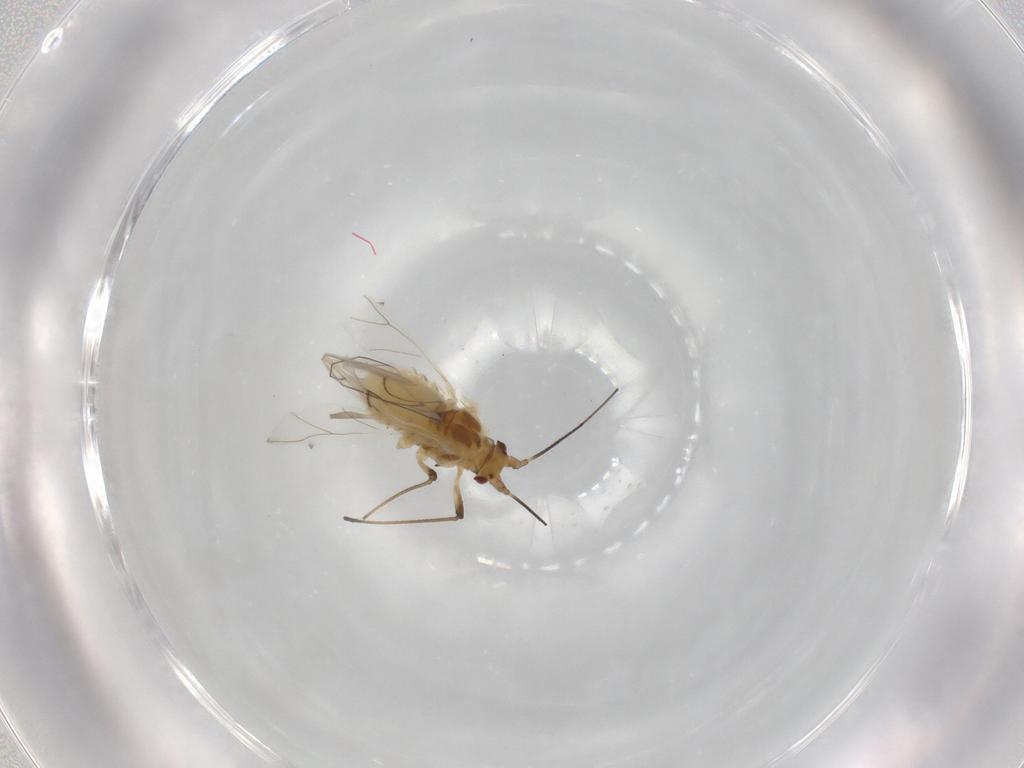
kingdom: Animalia
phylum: Arthropoda
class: Insecta
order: Hemiptera
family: Aphididae
